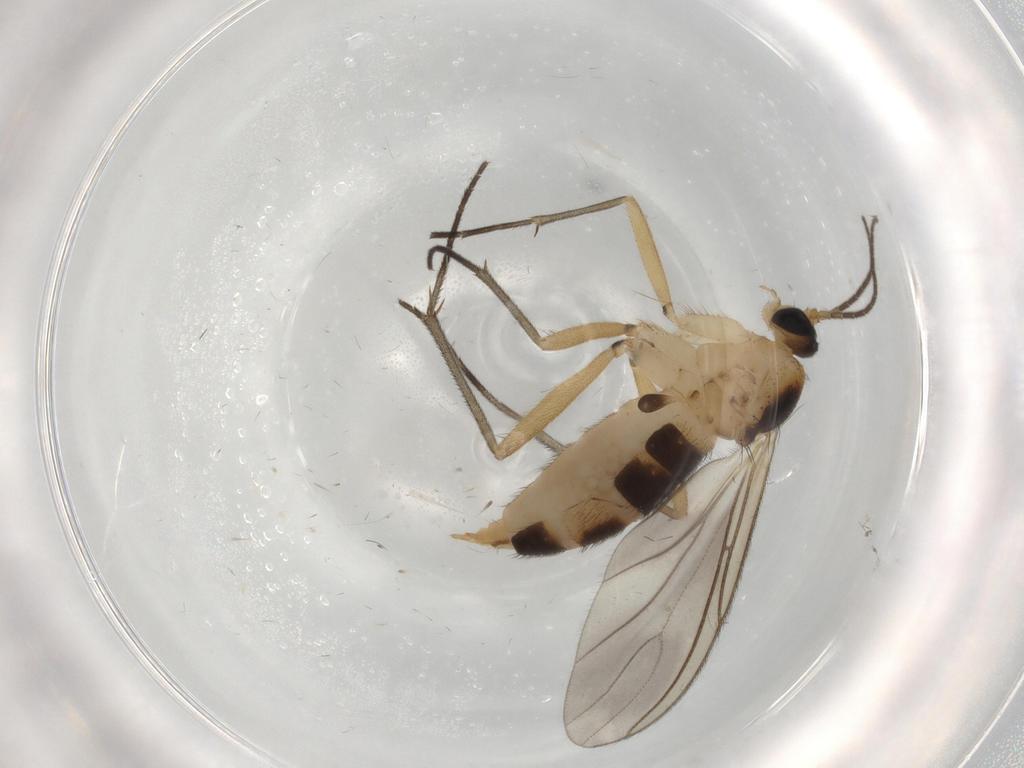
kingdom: Animalia
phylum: Arthropoda
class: Insecta
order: Diptera
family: Sciaridae
